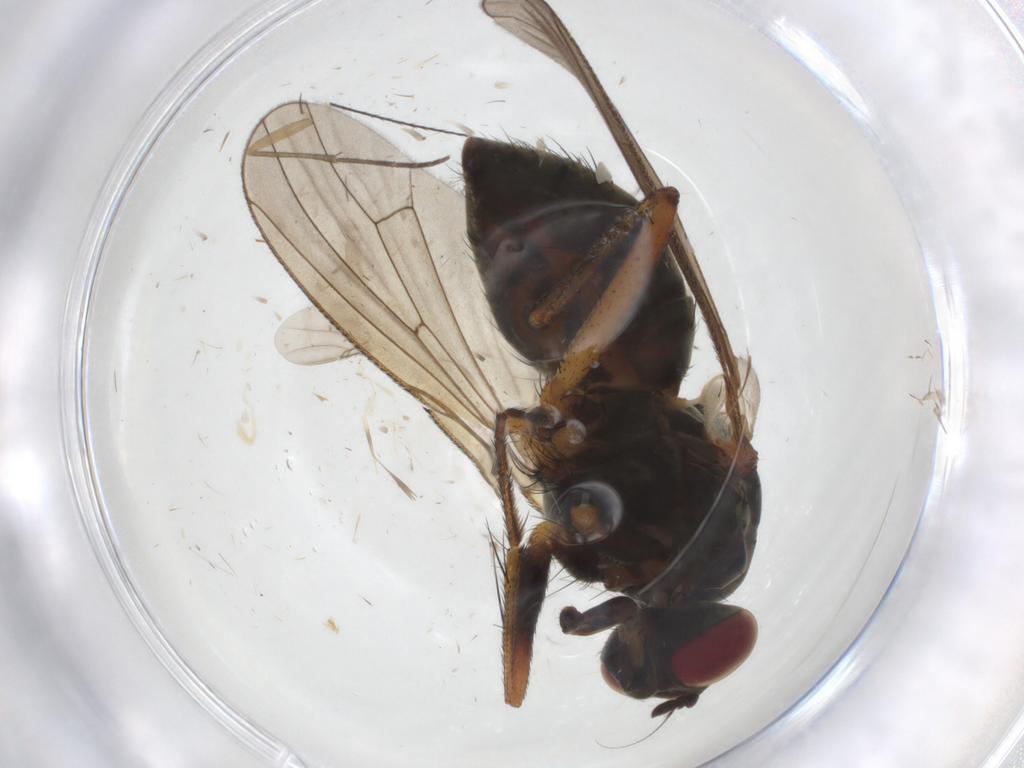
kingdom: Animalia
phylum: Arthropoda
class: Insecta
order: Diptera
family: Muscidae
